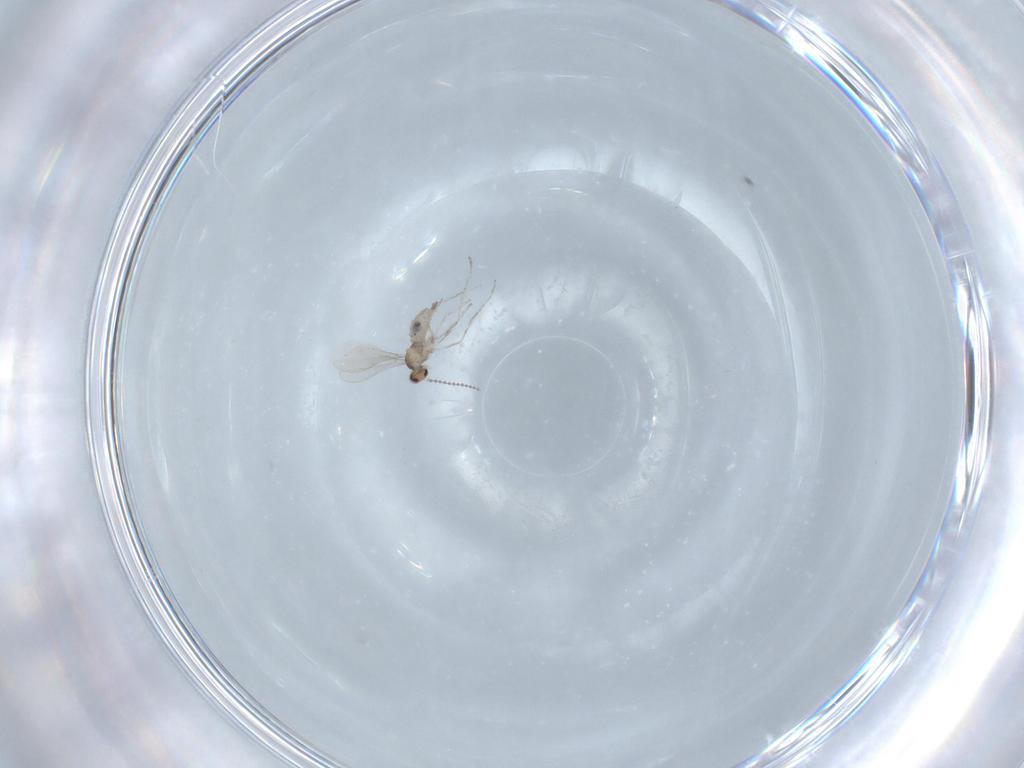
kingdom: Animalia
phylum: Arthropoda
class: Insecta
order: Diptera
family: Cecidomyiidae
